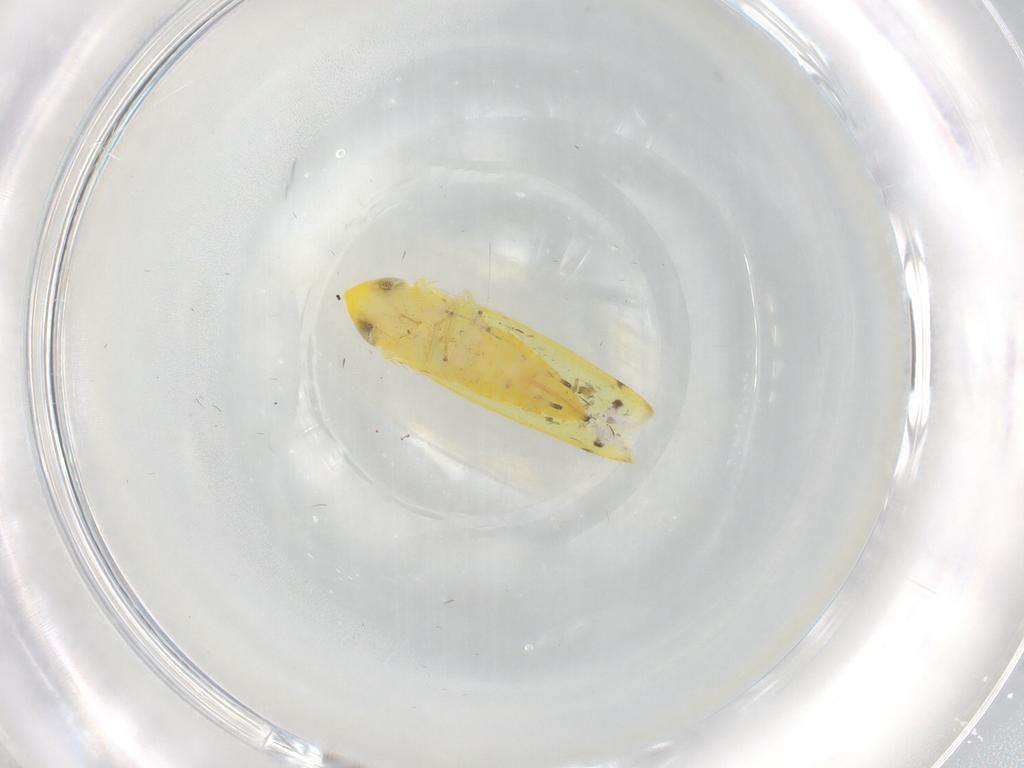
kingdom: Animalia
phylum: Arthropoda
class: Insecta
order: Hemiptera
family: Cicadellidae
